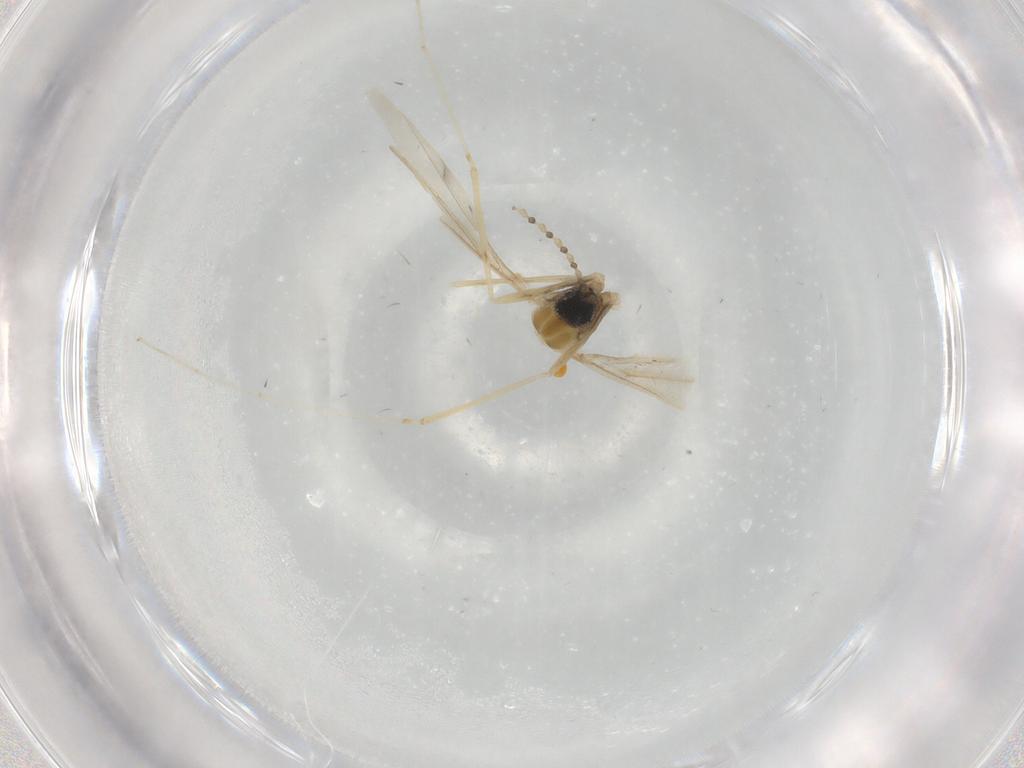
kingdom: Animalia
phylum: Arthropoda
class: Insecta
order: Diptera
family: Cecidomyiidae
